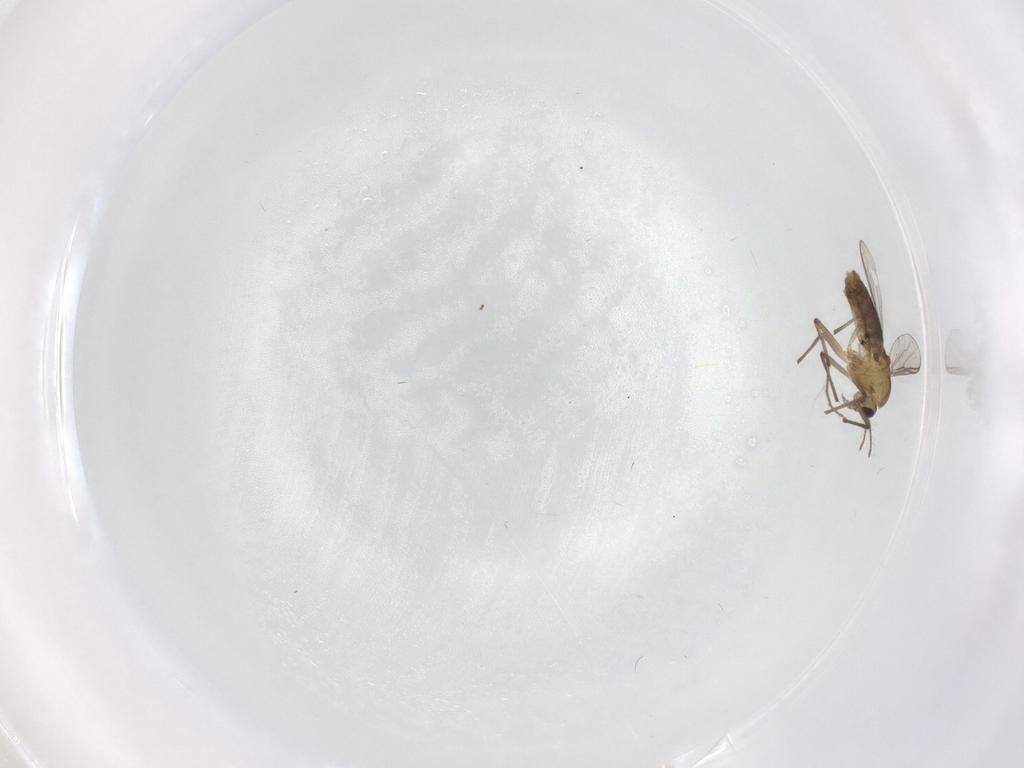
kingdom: Animalia
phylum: Arthropoda
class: Insecta
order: Diptera
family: Chironomidae
